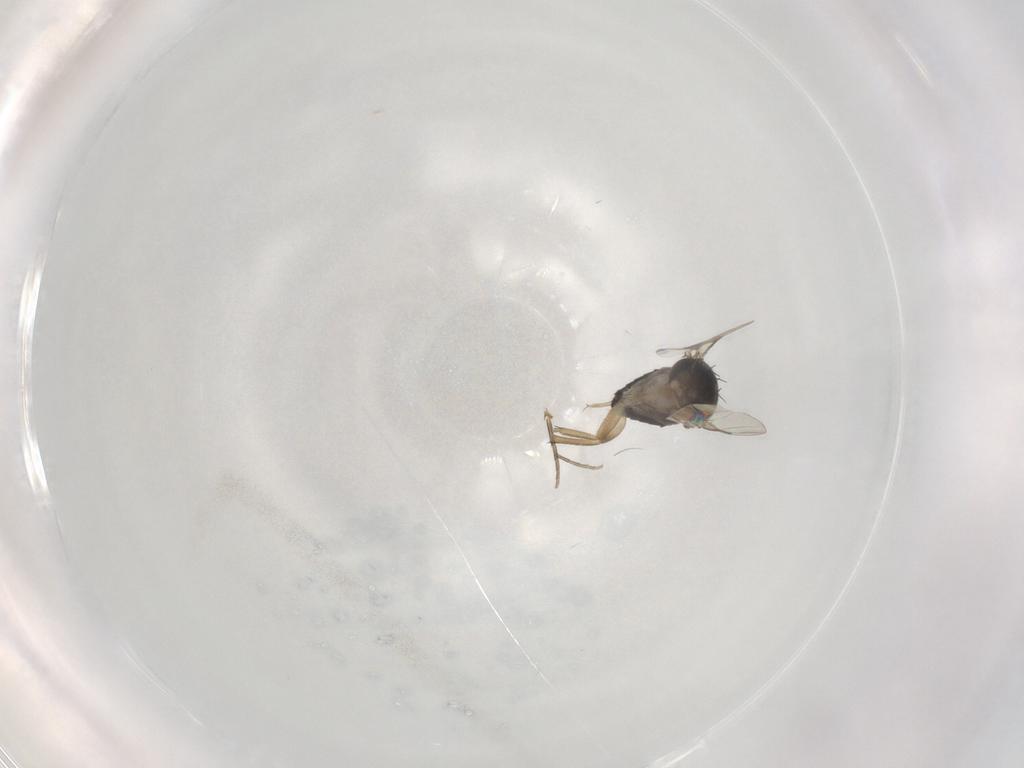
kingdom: Animalia
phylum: Arthropoda
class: Insecta
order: Diptera
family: Phoridae
